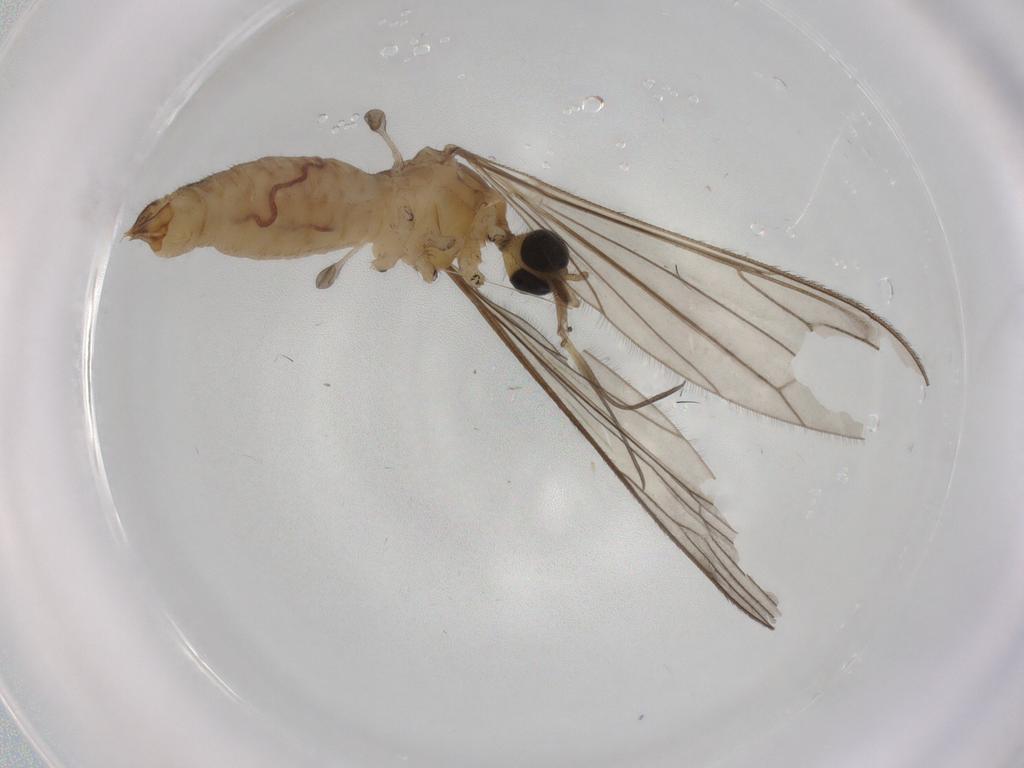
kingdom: Animalia
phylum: Arthropoda
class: Insecta
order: Diptera
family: Limoniidae
